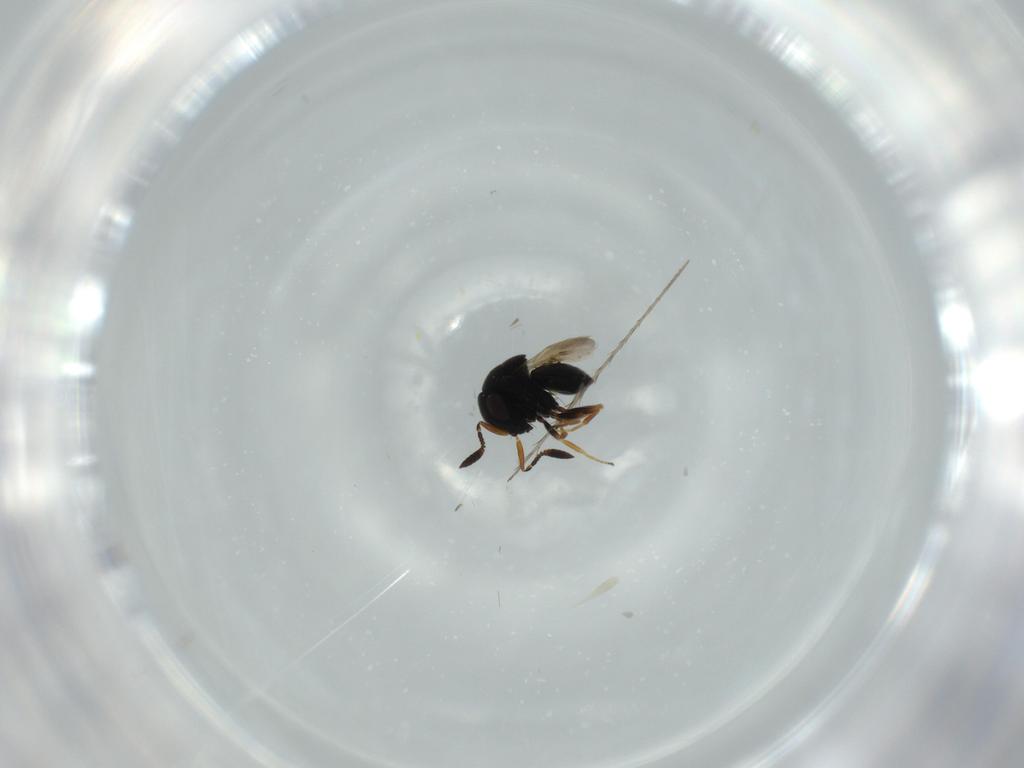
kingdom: Animalia
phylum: Arthropoda
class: Insecta
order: Hymenoptera
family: Scelionidae
